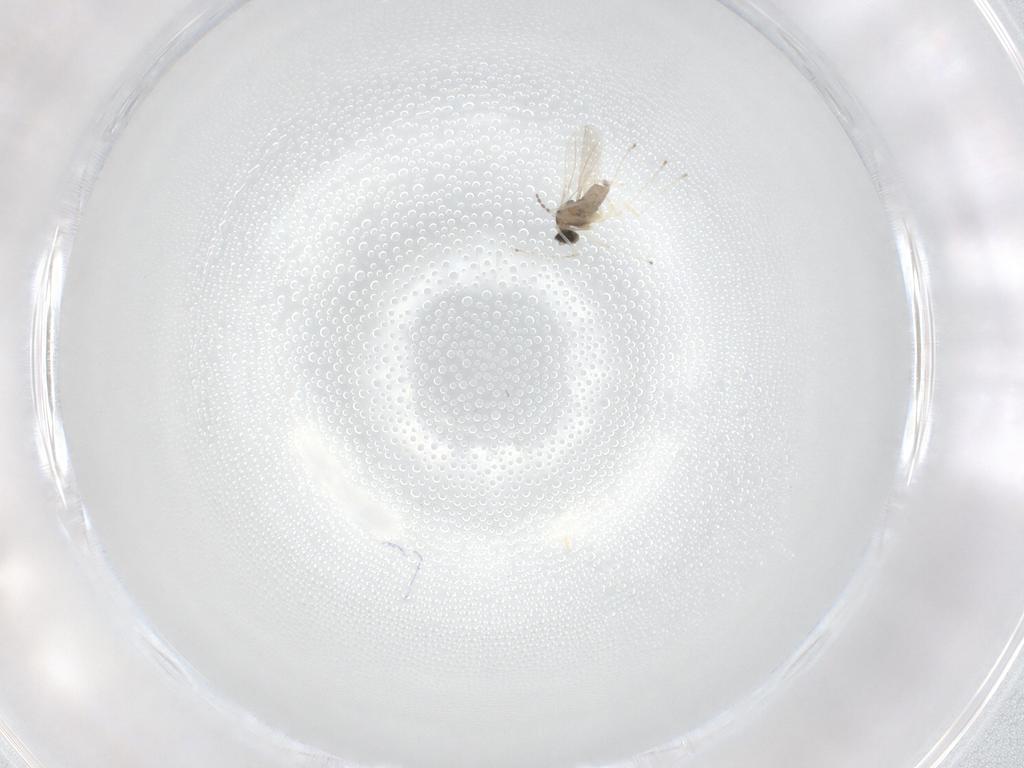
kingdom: Animalia
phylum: Arthropoda
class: Insecta
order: Diptera
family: Cecidomyiidae
